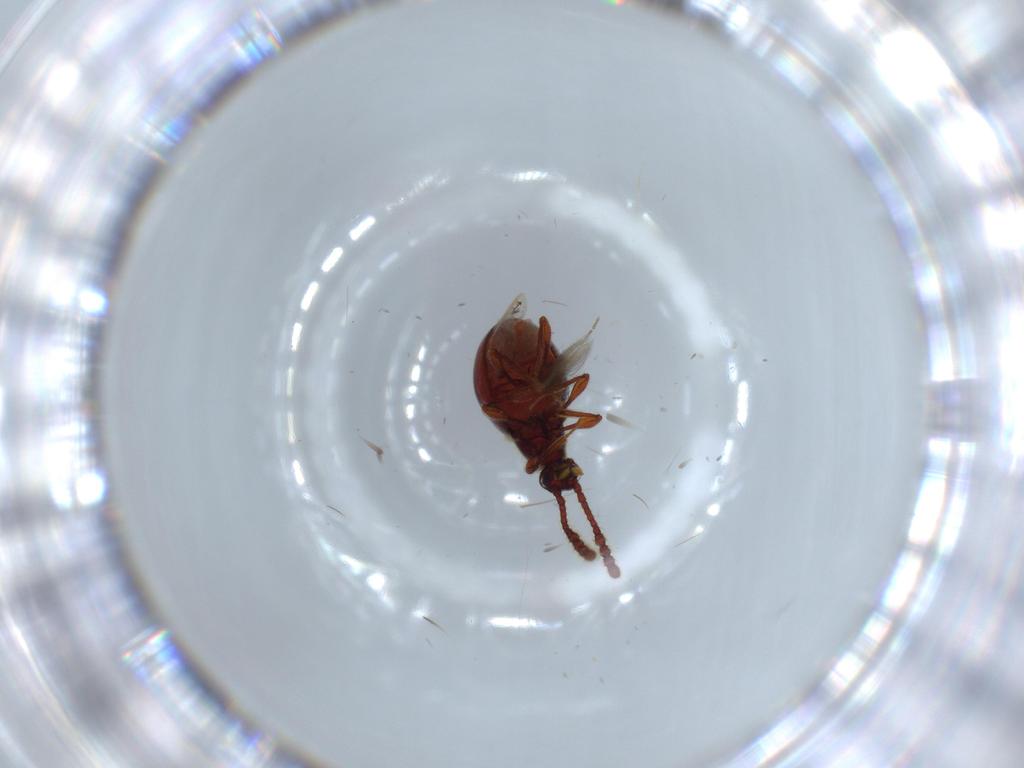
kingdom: Animalia
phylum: Arthropoda
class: Insecta
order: Coleoptera
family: Staphylinidae
